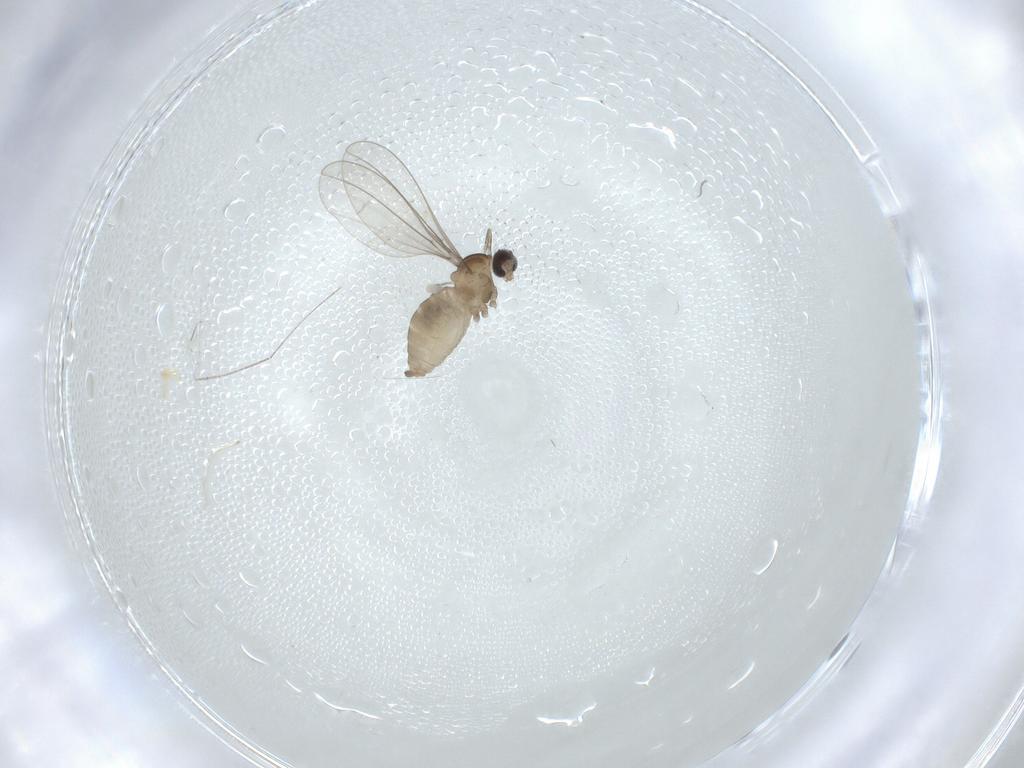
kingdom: Animalia
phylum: Arthropoda
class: Insecta
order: Diptera
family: Cecidomyiidae
